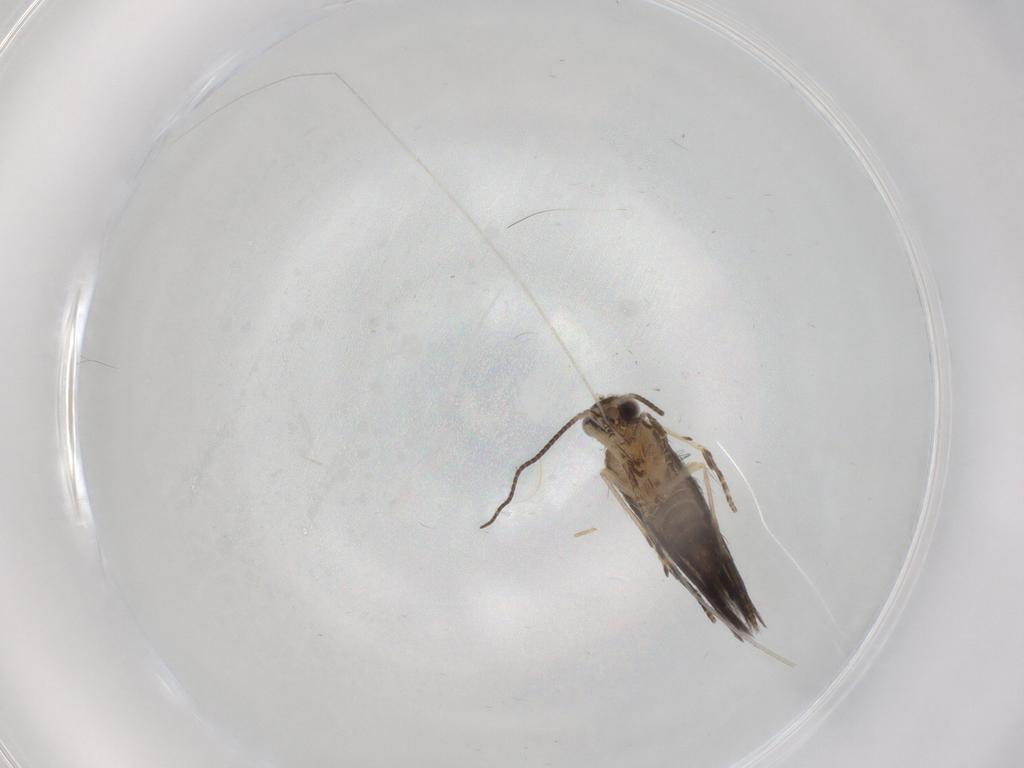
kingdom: Animalia
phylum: Arthropoda
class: Insecta
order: Trichoptera
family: Hydroptilidae
